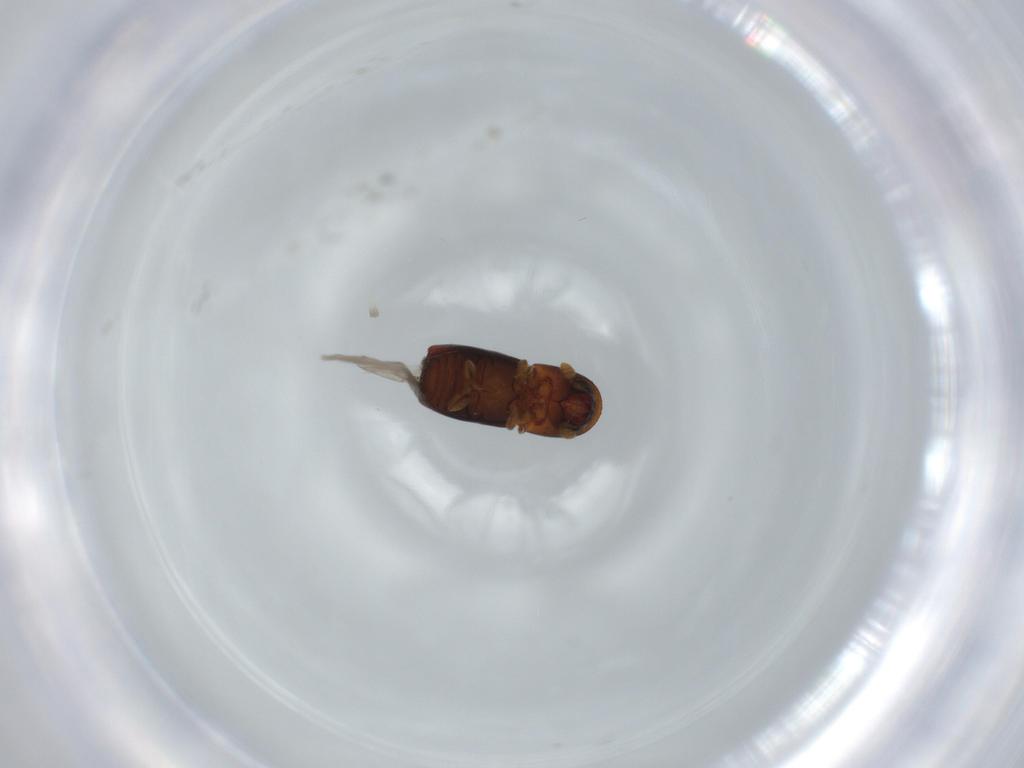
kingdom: Animalia
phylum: Arthropoda
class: Insecta
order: Coleoptera
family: Curculionidae
